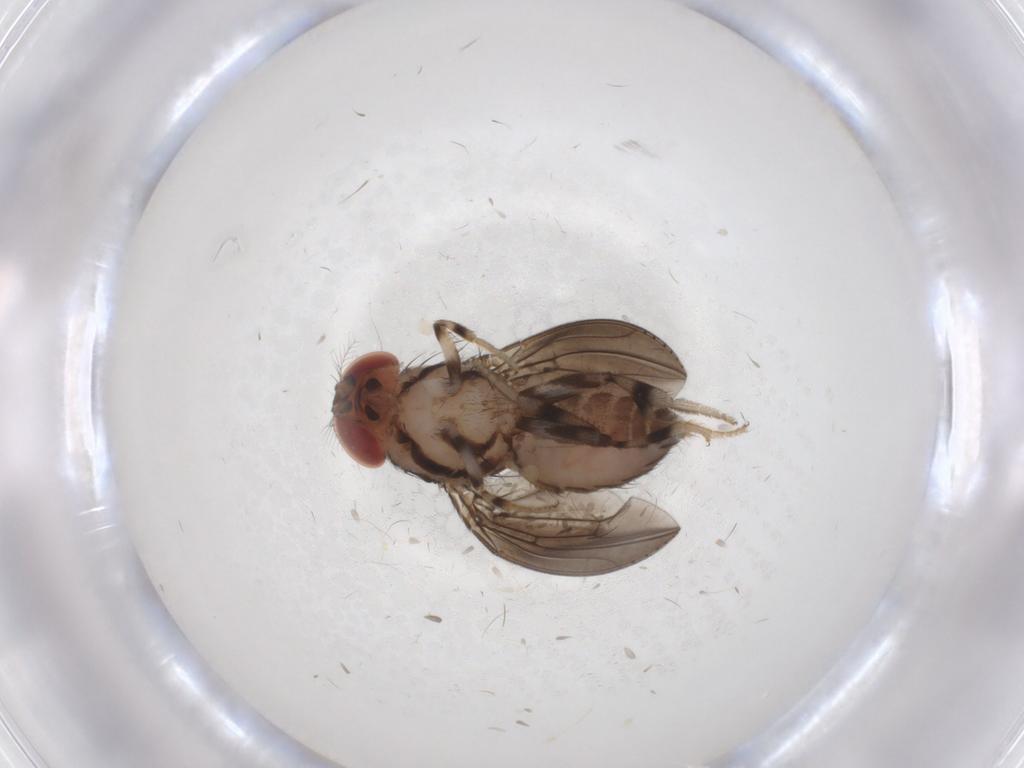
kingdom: Animalia
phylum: Arthropoda
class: Insecta
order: Diptera
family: Drosophilidae
